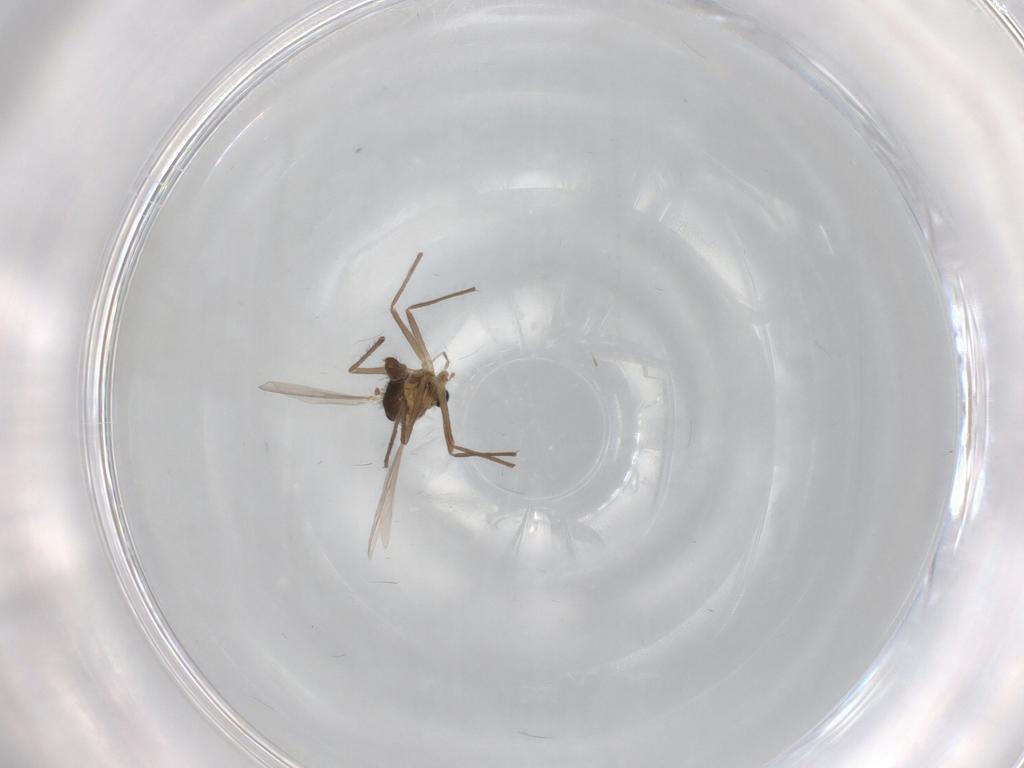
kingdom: Animalia
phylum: Arthropoda
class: Insecta
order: Diptera
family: Chironomidae
